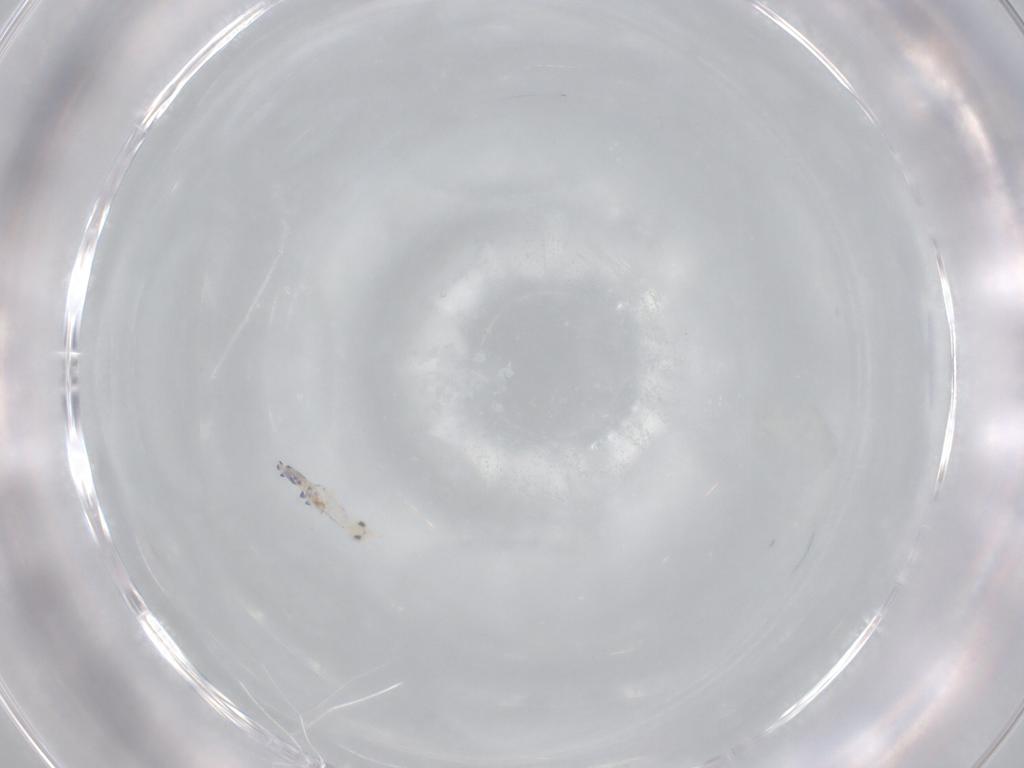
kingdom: Animalia
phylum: Arthropoda
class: Collembola
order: Entomobryomorpha
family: Entomobryidae
